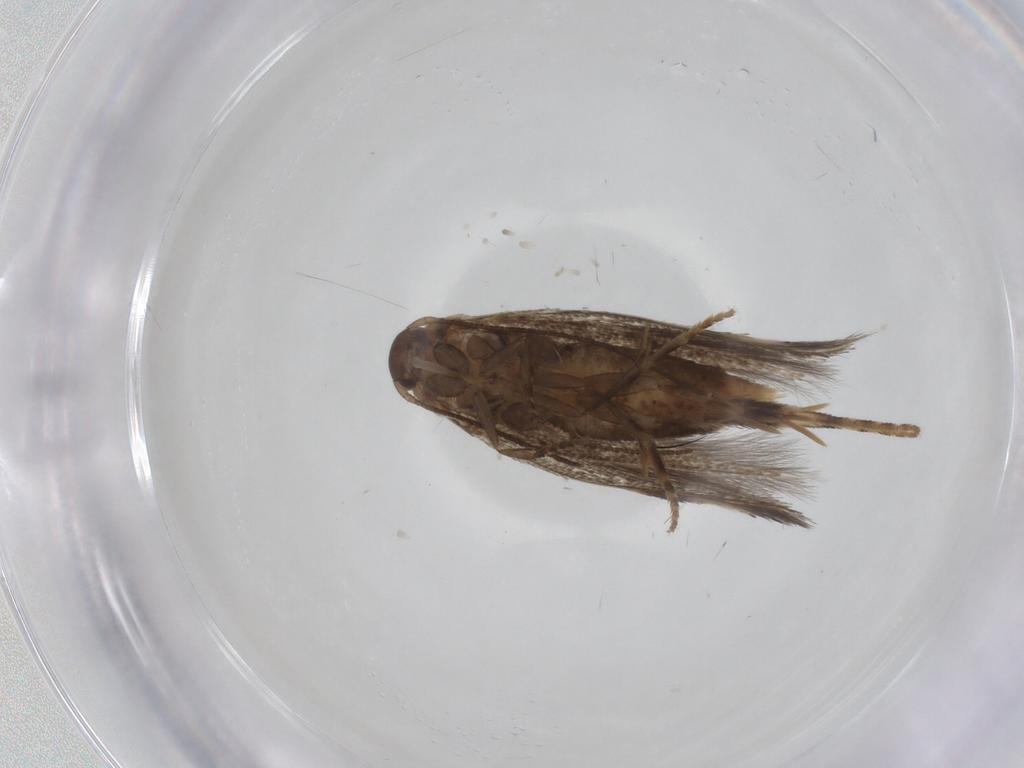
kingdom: Animalia
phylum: Arthropoda
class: Insecta
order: Lepidoptera
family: Elachistidae
